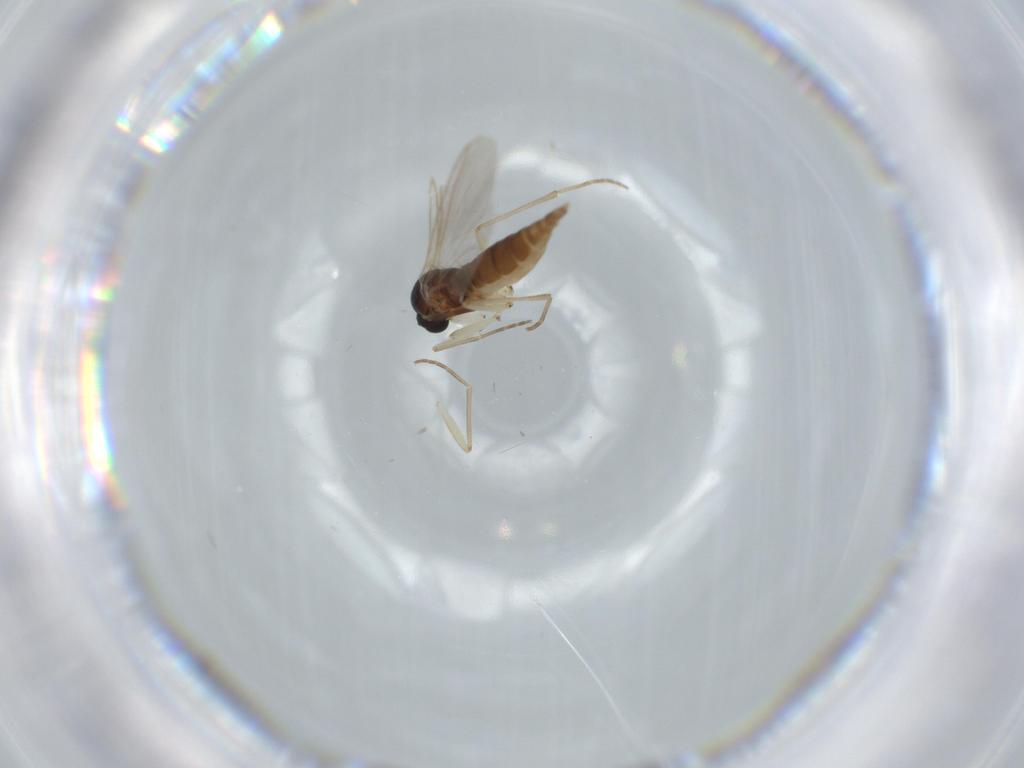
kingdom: Animalia
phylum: Arthropoda
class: Insecta
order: Diptera
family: Sciaridae
